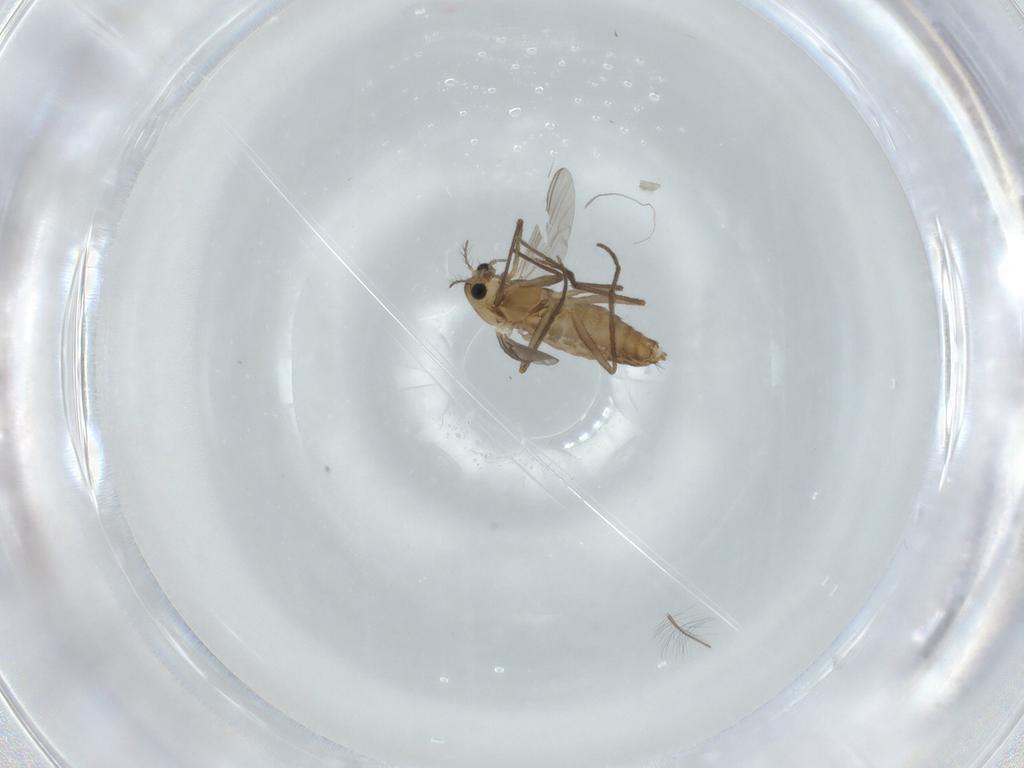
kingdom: Animalia
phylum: Arthropoda
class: Insecta
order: Diptera
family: Chironomidae
